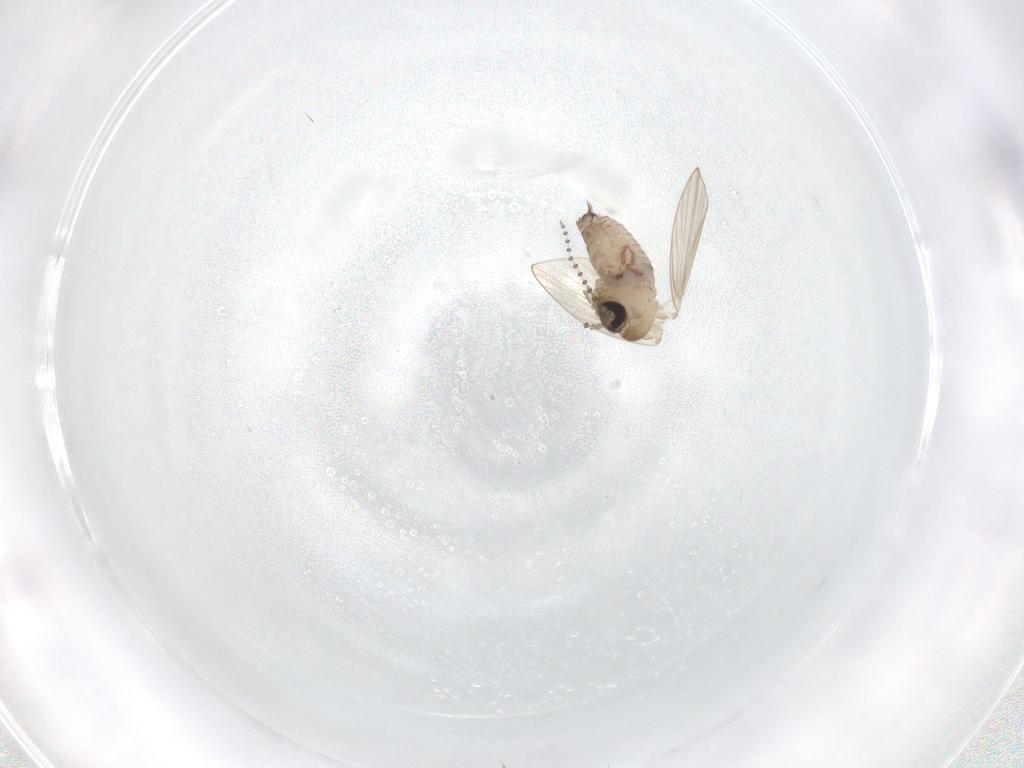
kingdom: Animalia
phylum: Arthropoda
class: Insecta
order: Diptera
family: Psychodidae
